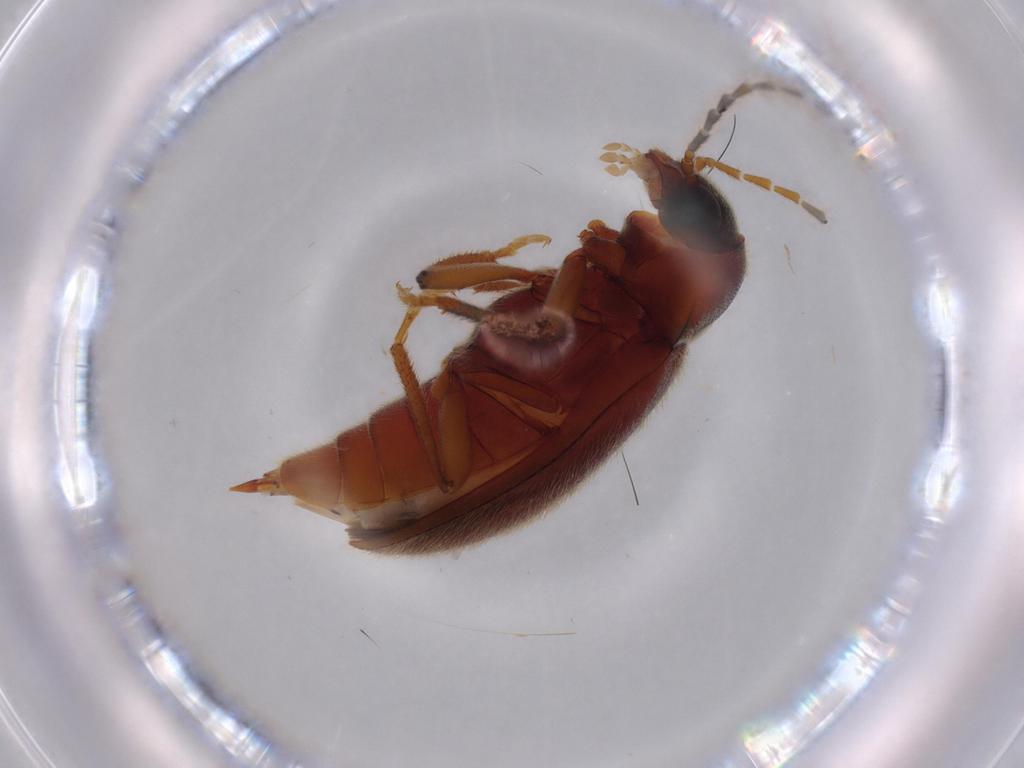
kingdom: Animalia
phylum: Arthropoda
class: Insecta
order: Coleoptera
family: Ptilodactylidae
